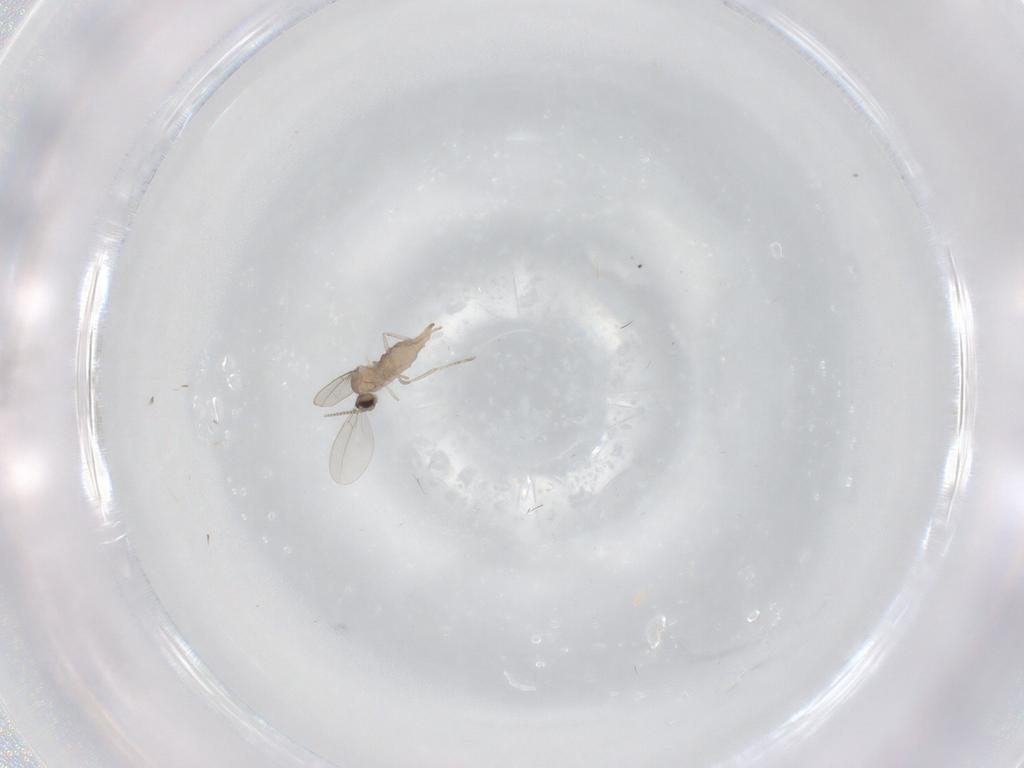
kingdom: Animalia
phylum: Arthropoda
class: Insecta
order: Diptera
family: Cecidomyiidae
